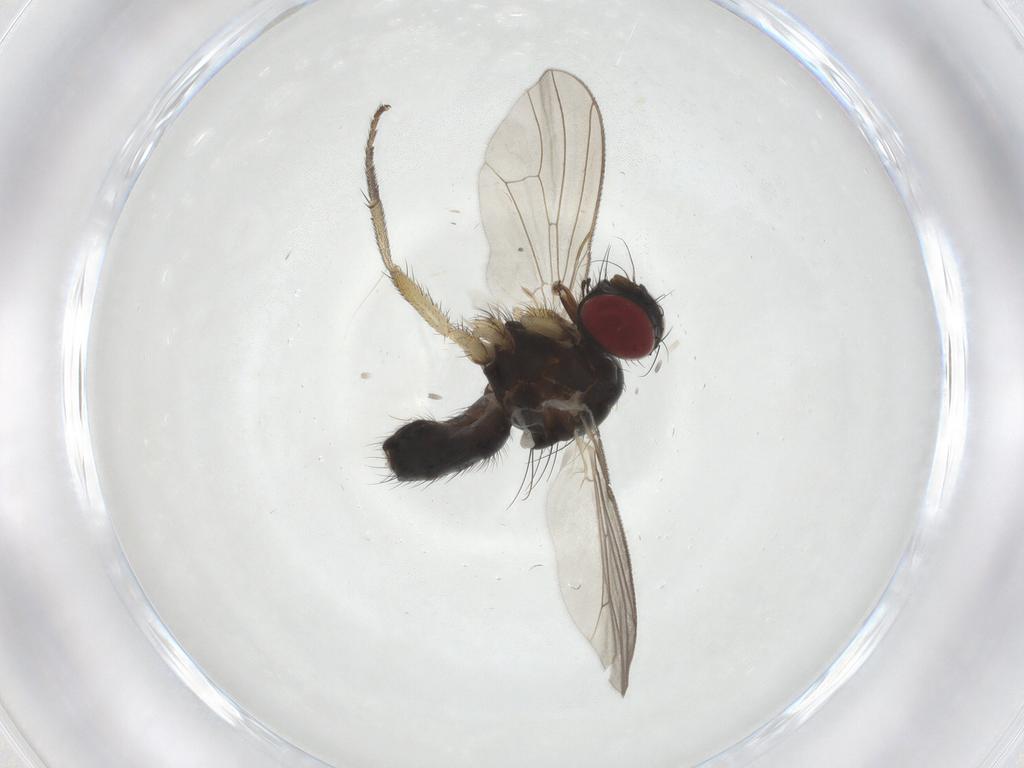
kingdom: Animalia
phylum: Arthropoda
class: Insecta
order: Diptera
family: Muscidae
